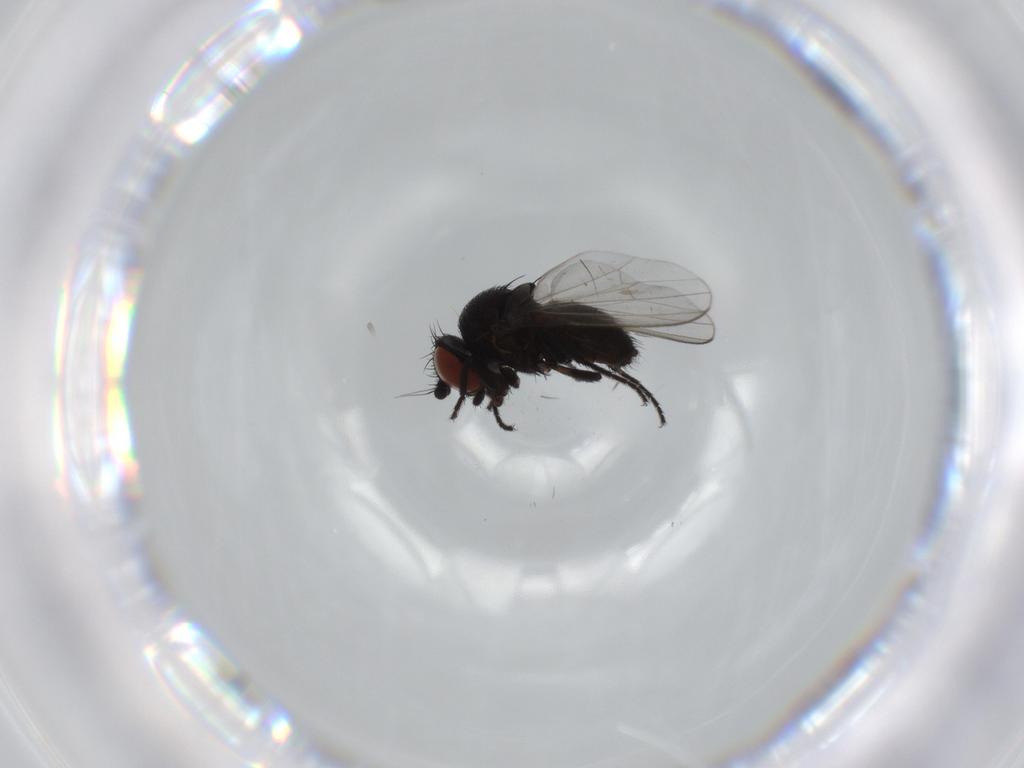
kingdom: Animalia
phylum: Arthropoda
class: Insecta
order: Diptera
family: Milichiidae
